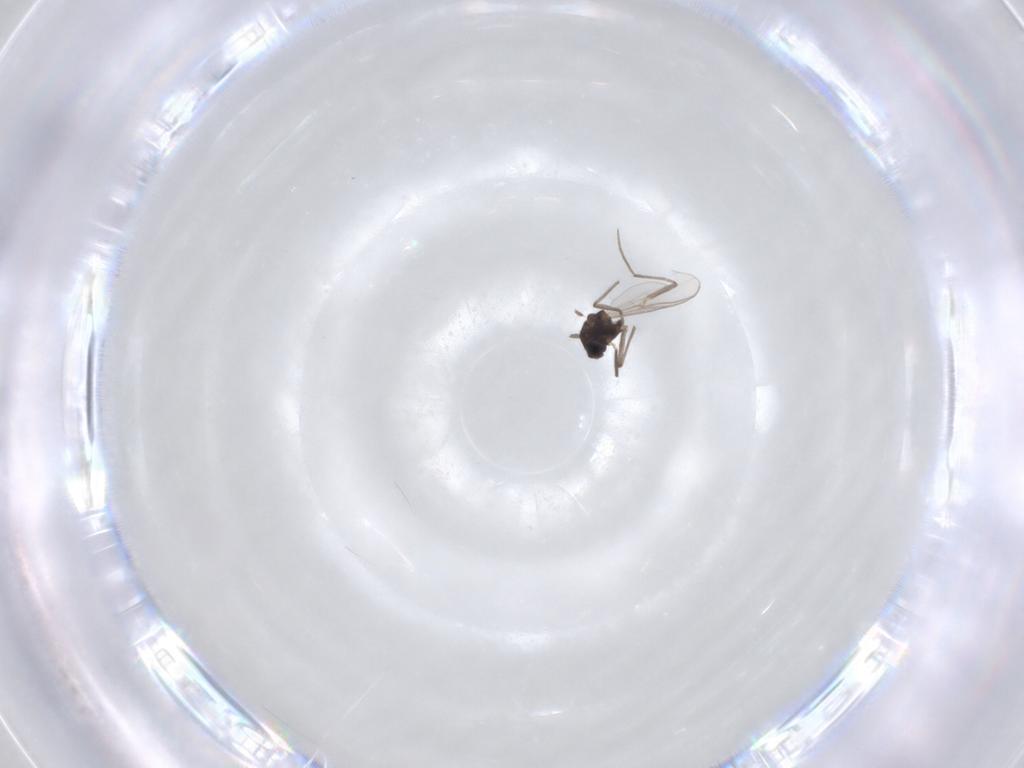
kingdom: Animalia
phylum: Arthropoda
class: Insecta
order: Diptera
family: Chironomidae
